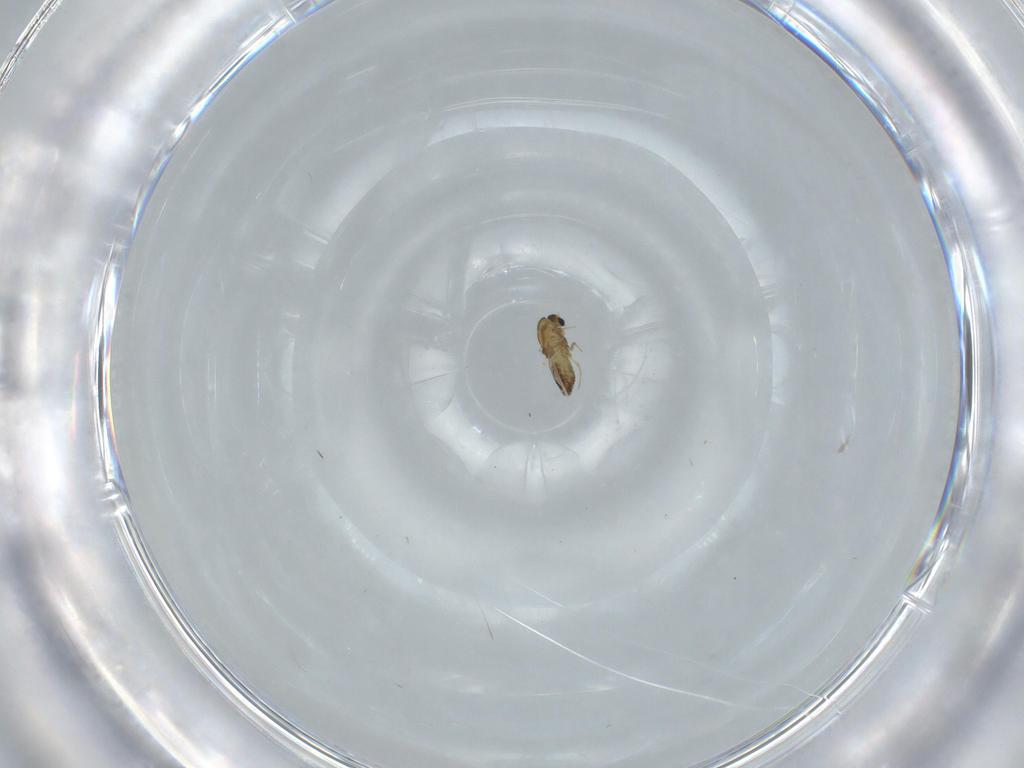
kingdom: Animalia
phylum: Arthropoda
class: Insecta
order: Diptera
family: Chironomidae
